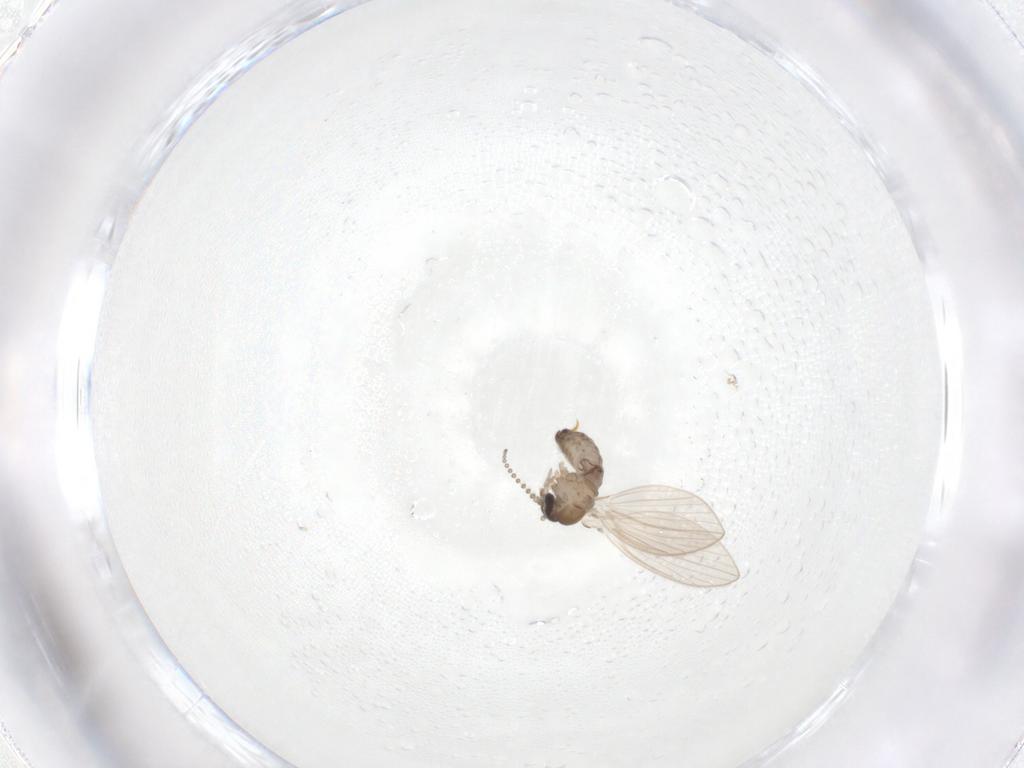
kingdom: Animalia
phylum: Arthropoda
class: Insecta
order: Diptera
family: Psychodidae
